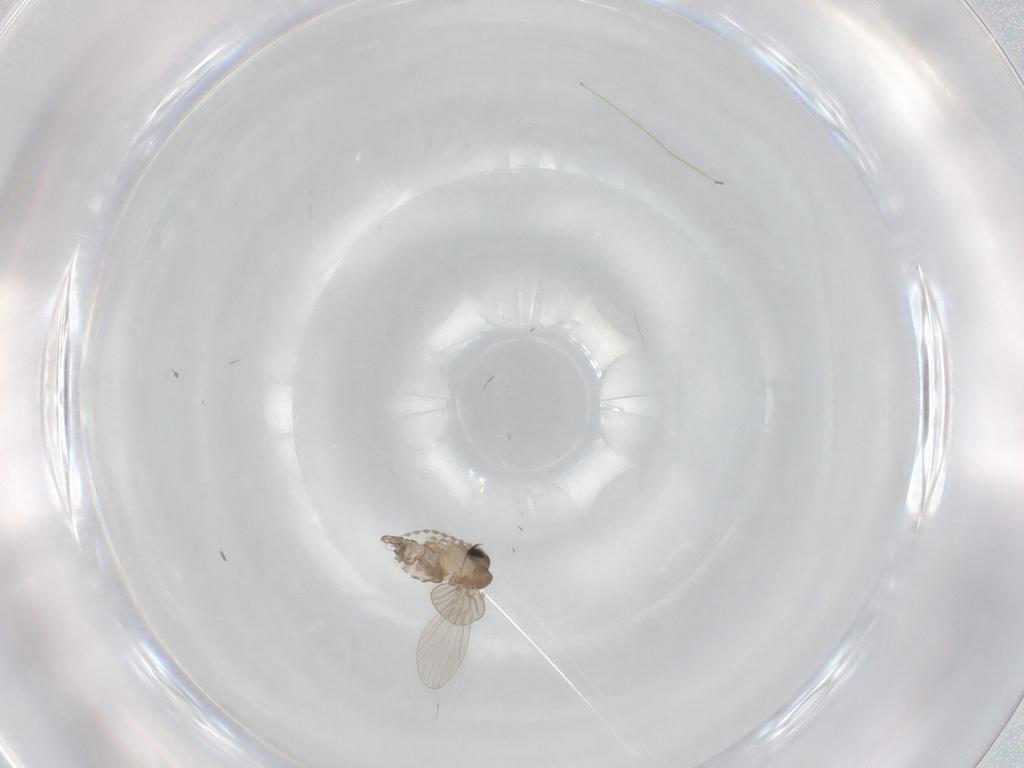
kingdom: Animalia
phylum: Arthropoda
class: Insecta
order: Diptera
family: Psychodidae
